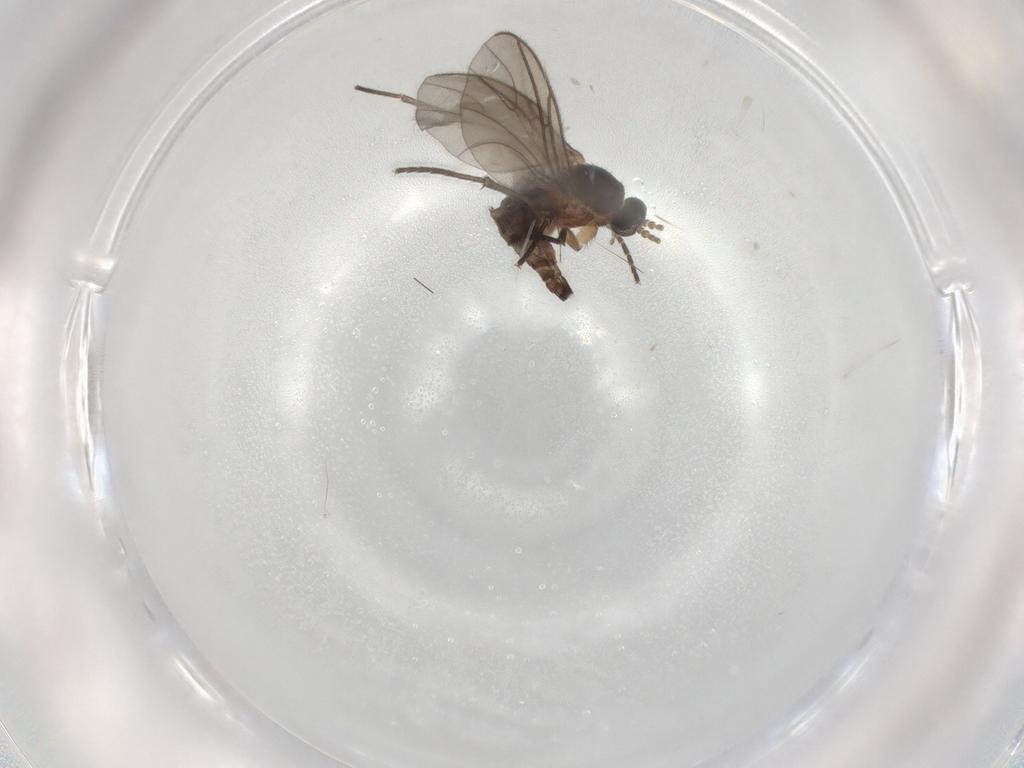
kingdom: Animalia
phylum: Arthropoda
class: Insecta
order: Diptera
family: Sciaridae
